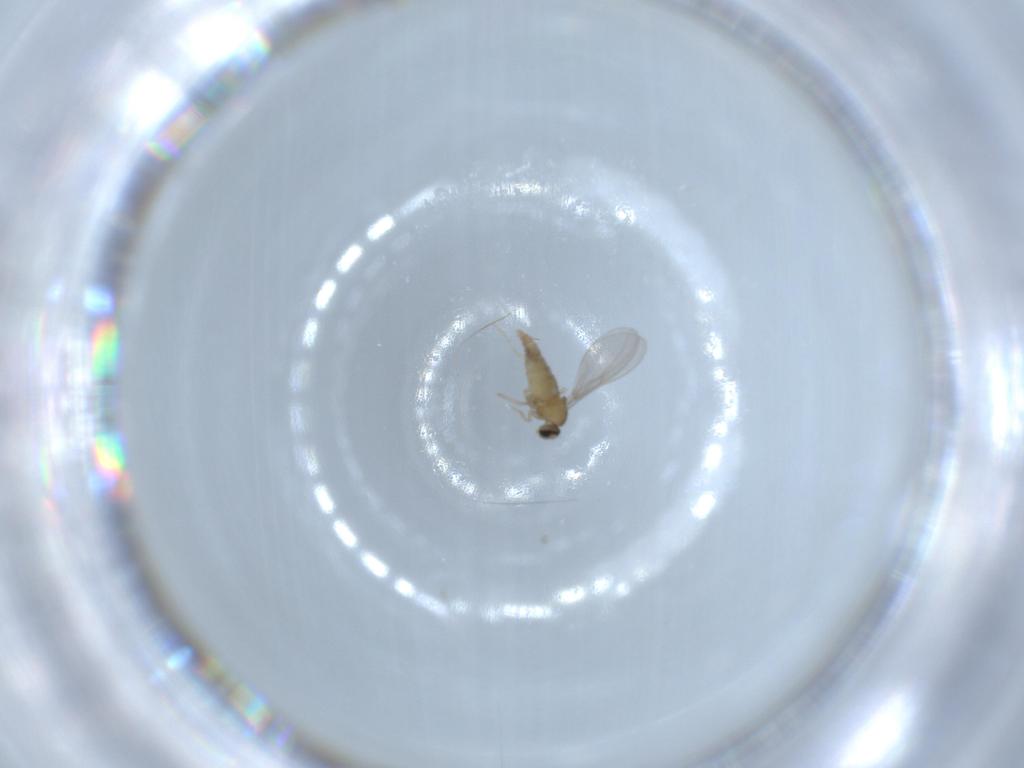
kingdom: Animalia
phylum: Arthropoda
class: Insecta
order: Diptera
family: Cecidomyiidae
